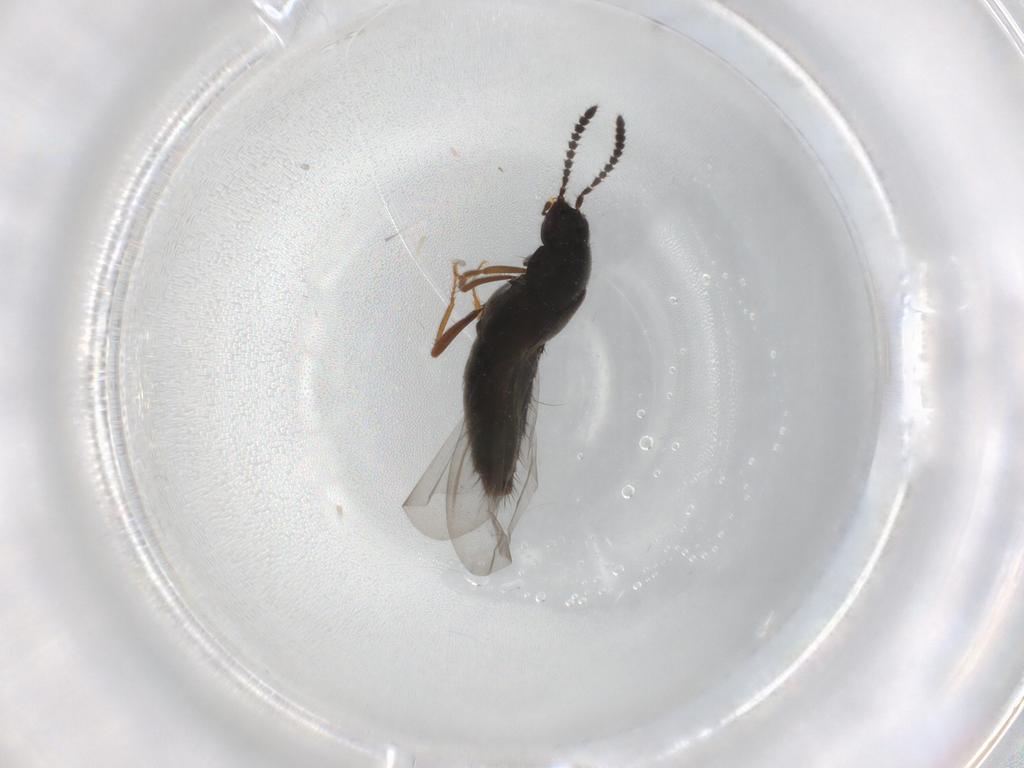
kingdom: Animalia
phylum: Arthropoda
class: Insecta
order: Coleoptera
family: Staphylinidae
